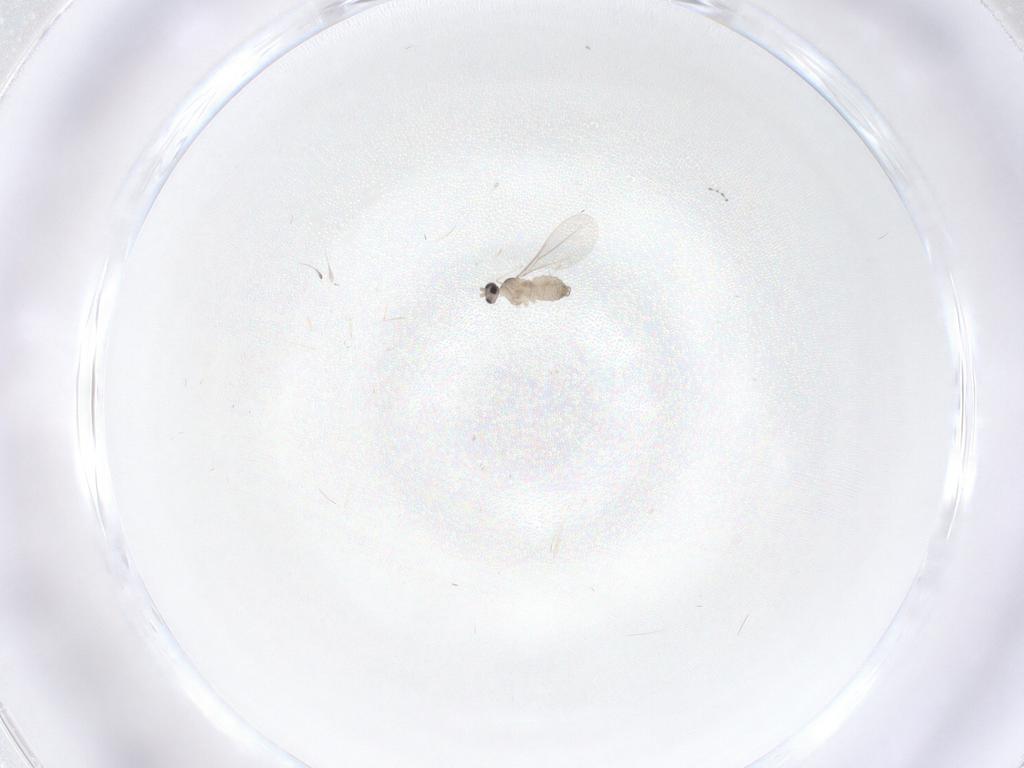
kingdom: Animalia
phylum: Arthropoda
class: Insecta
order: Diptera
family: Cecidomyiidae
